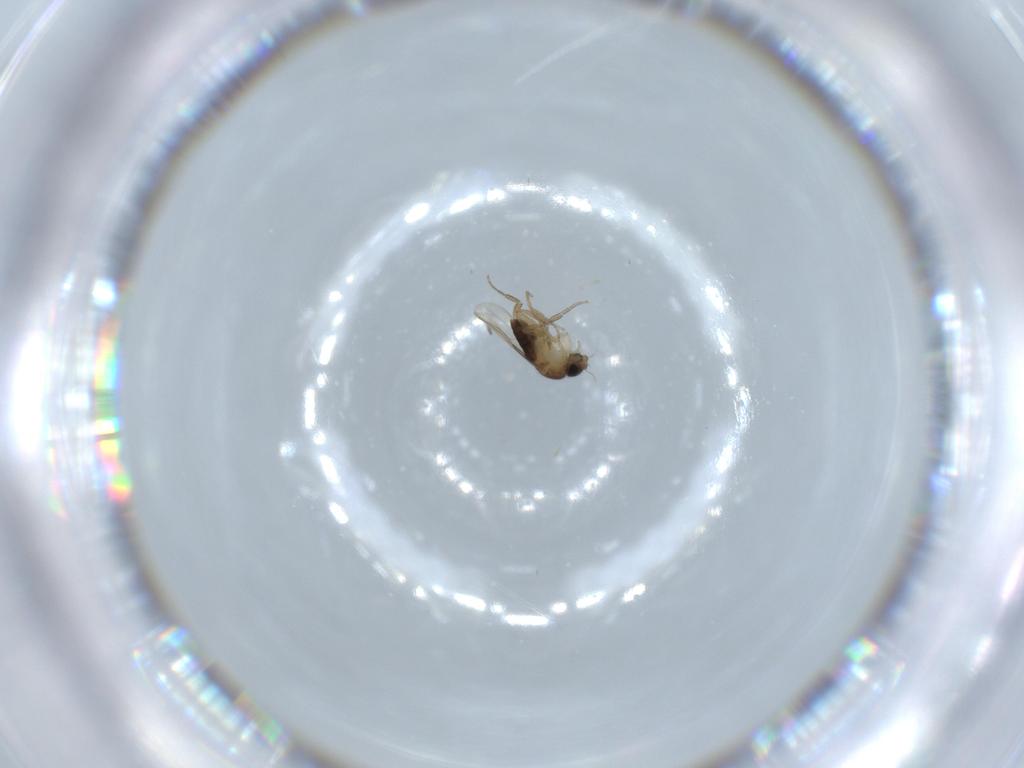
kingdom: Animalia
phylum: Arthropoda
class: Insecta
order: Diptera
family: Phoridae
